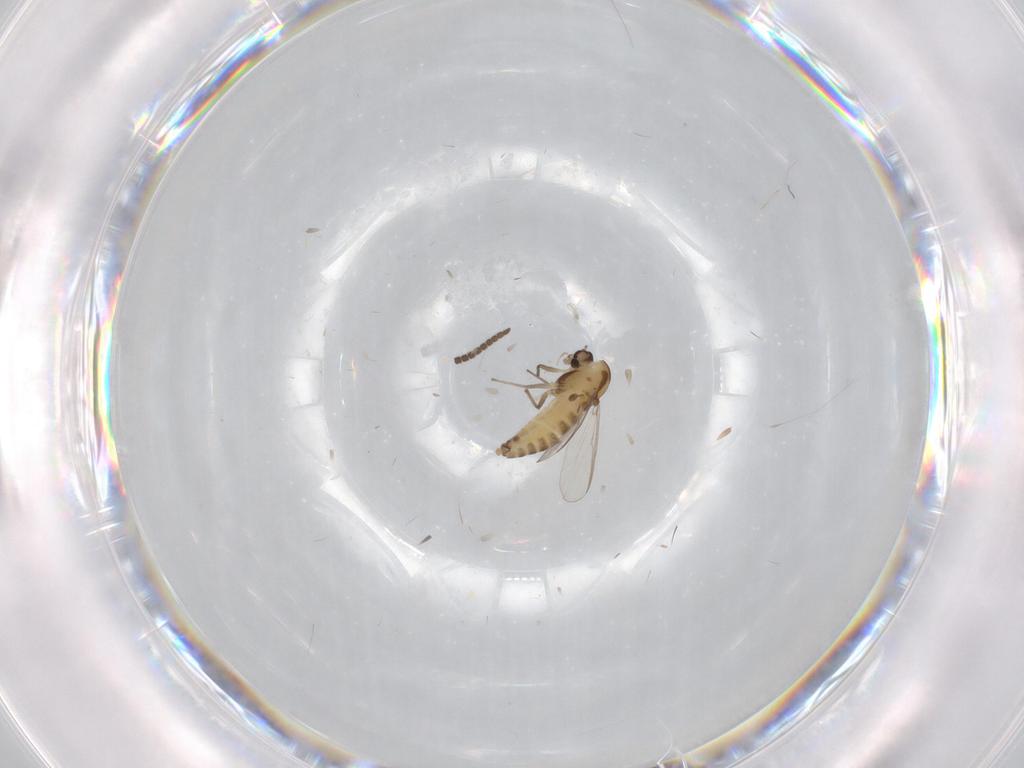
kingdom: Animalia
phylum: Arthropoda
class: Insecta
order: Diptera
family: Chironomidae
